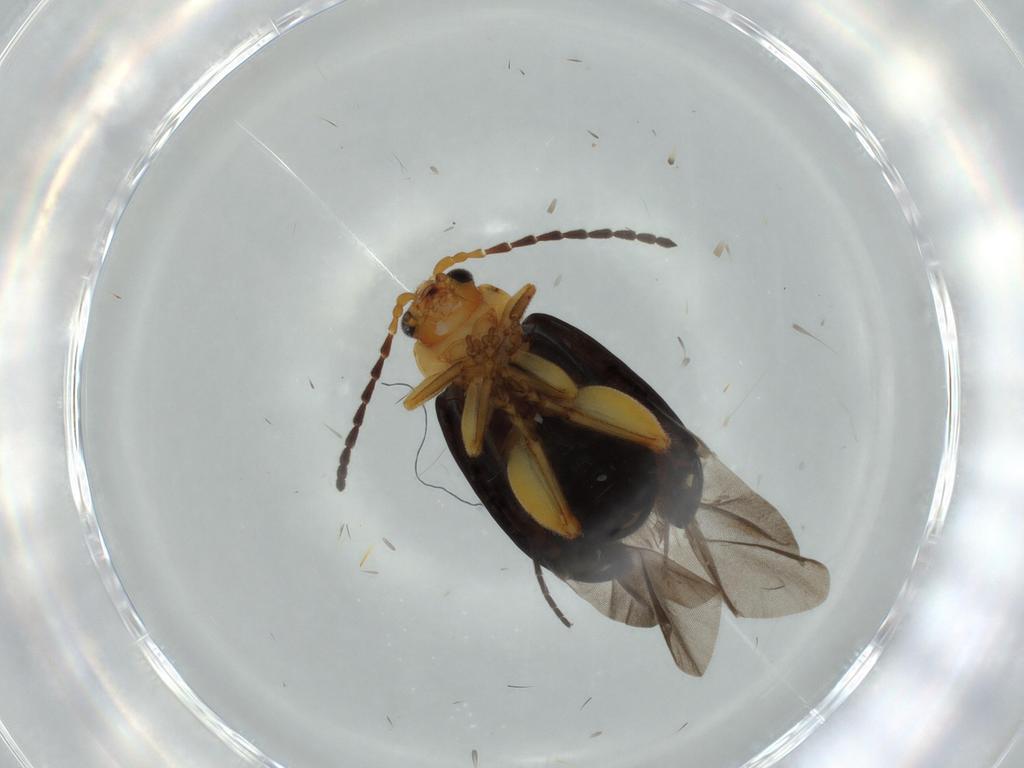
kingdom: Animalia
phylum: Arthropoda
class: Insecta
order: Coleoptera
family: Chrysomelidae
